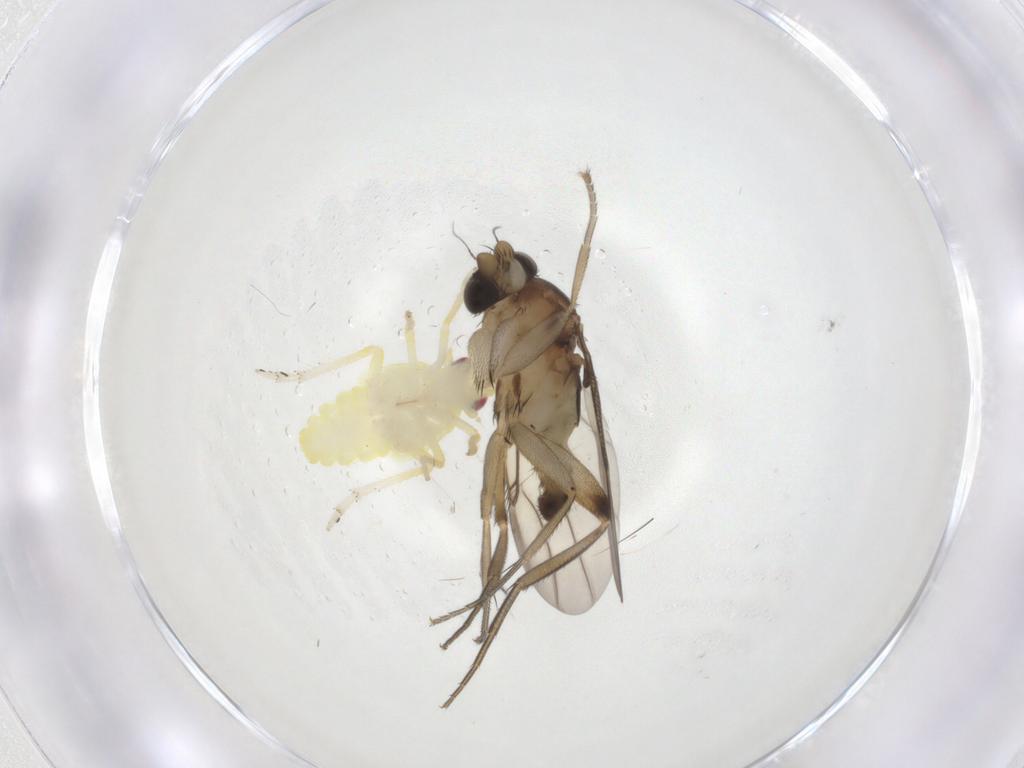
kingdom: Animalia
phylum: Arthropoda
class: Insecta
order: Diptera
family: Phoridae
